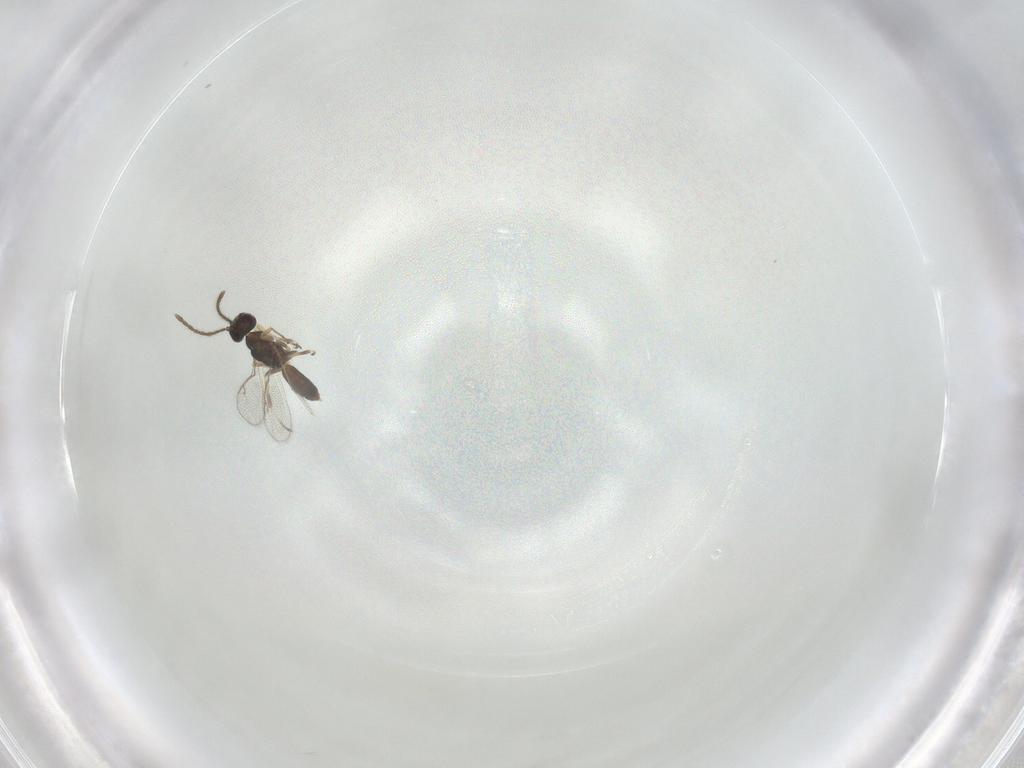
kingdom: Animalia
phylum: Arthropoda
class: Insecta
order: Hymenoptera
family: Eupelmidae
